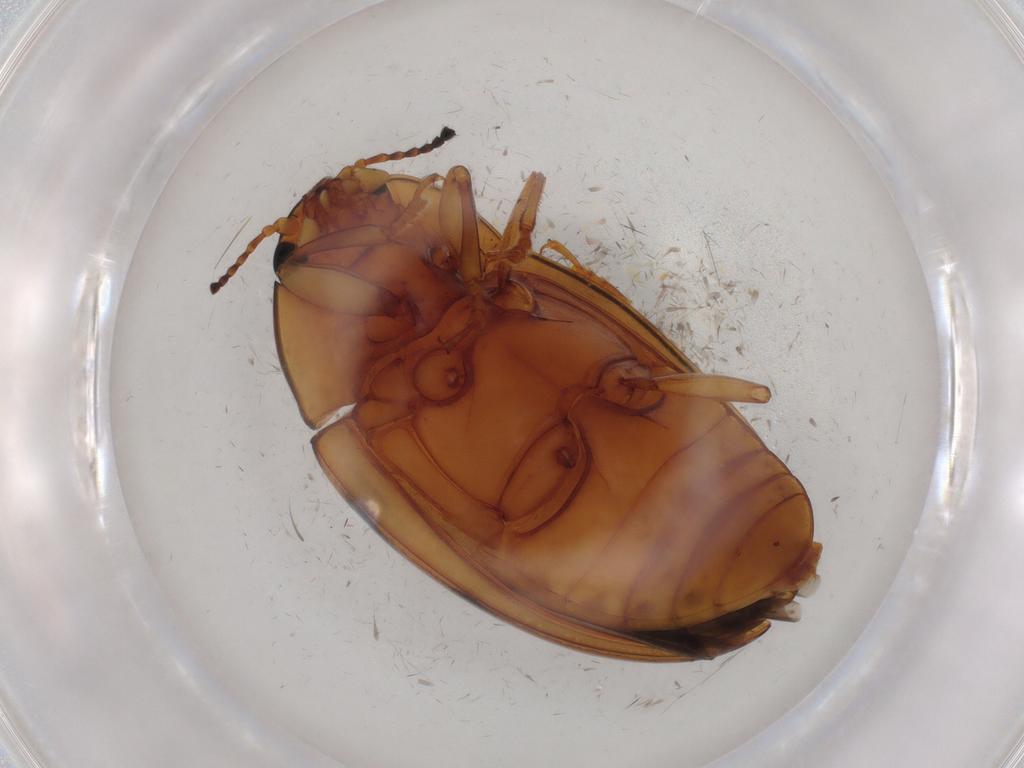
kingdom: Animalia
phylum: Arthropoda
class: Insecta
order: Coleoptera
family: Erotylidae
